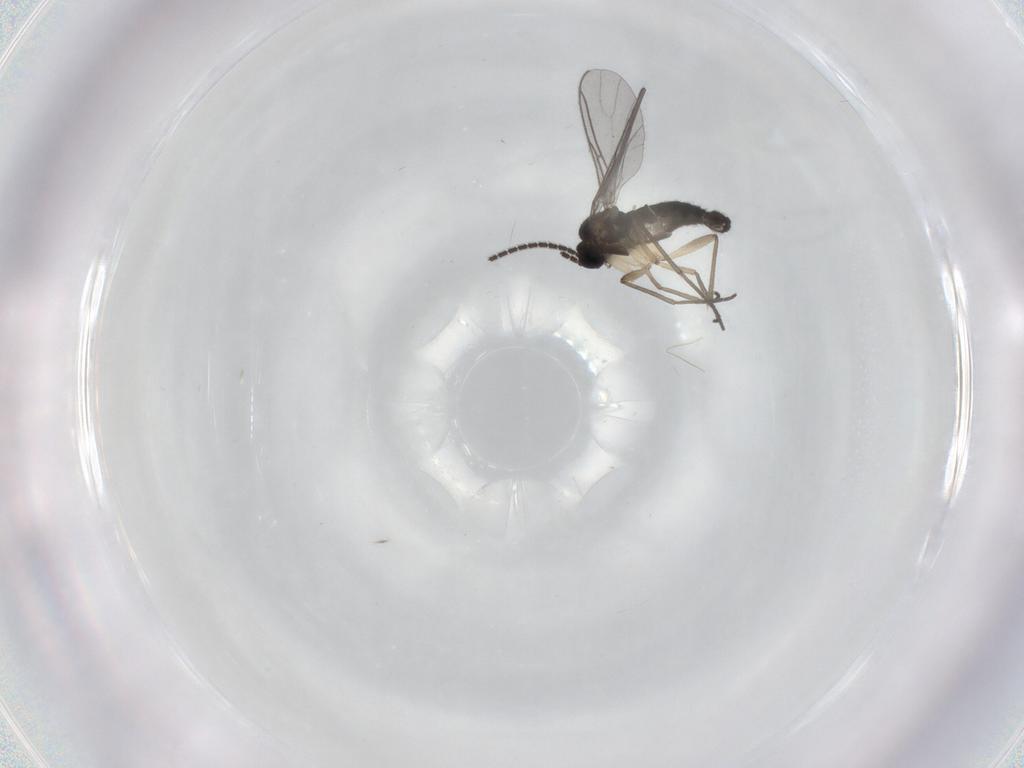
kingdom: Animalia
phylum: Arthropoda
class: Insecta
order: Diptera
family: Sciaridae
